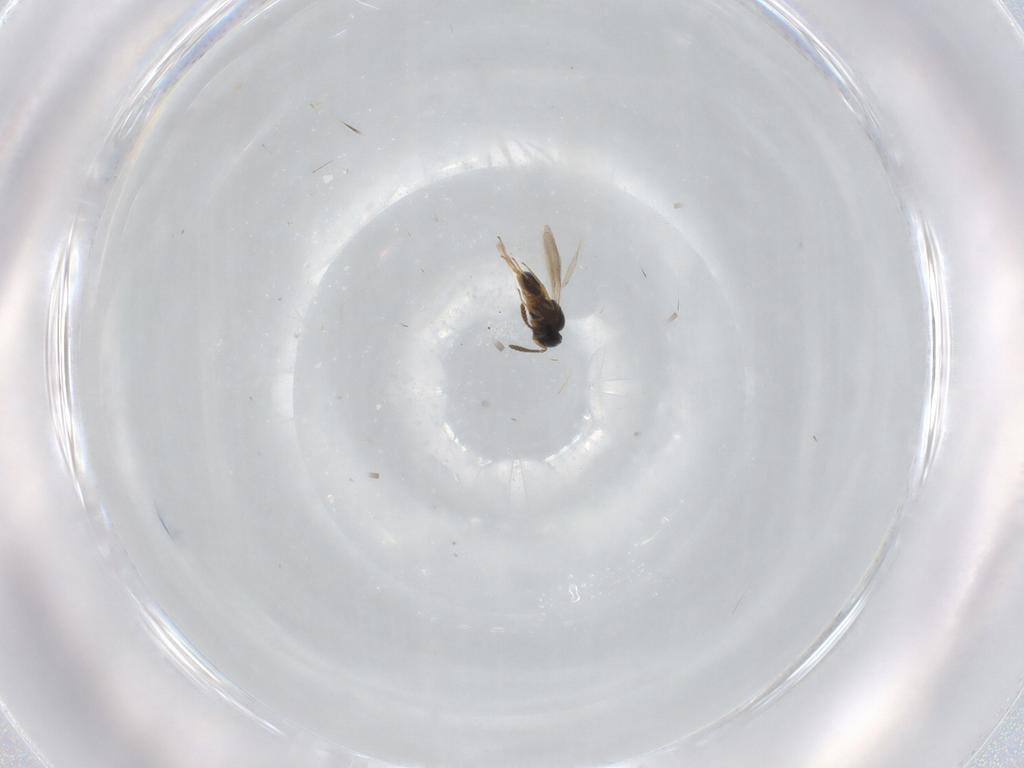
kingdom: Animalia
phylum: Arthropoda
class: Insecta
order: Hymenoptera
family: Scelionidae
